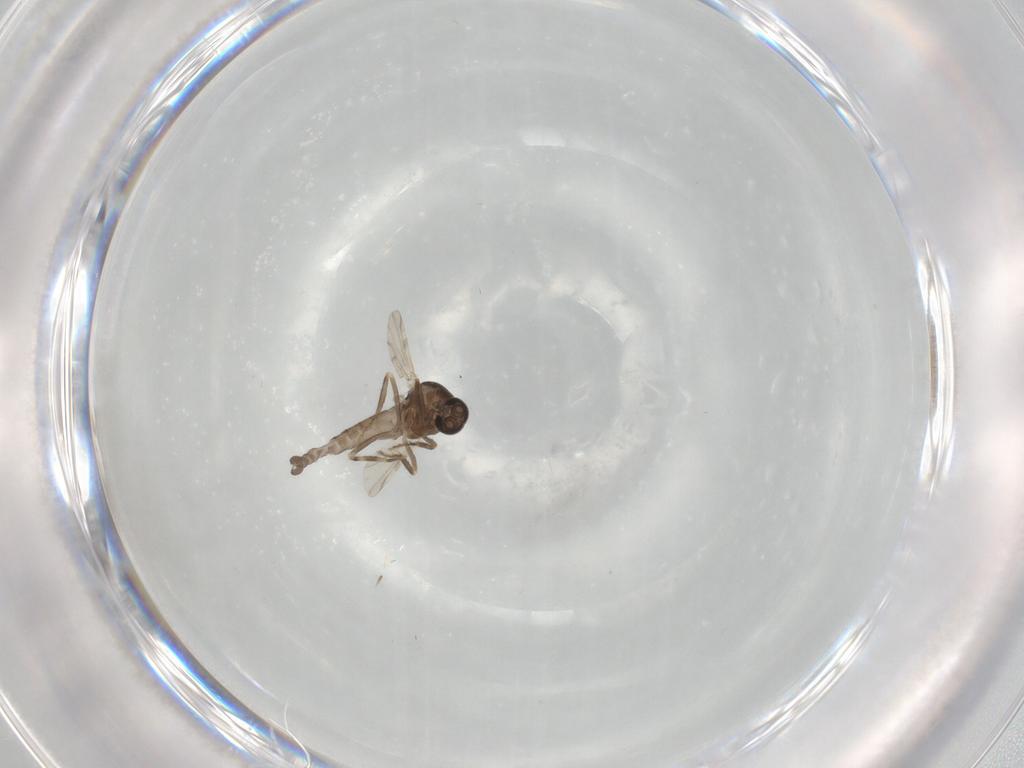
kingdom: Animalia
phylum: Arthropoda
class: Insecta
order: Diptera
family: Ceratopogonidae
